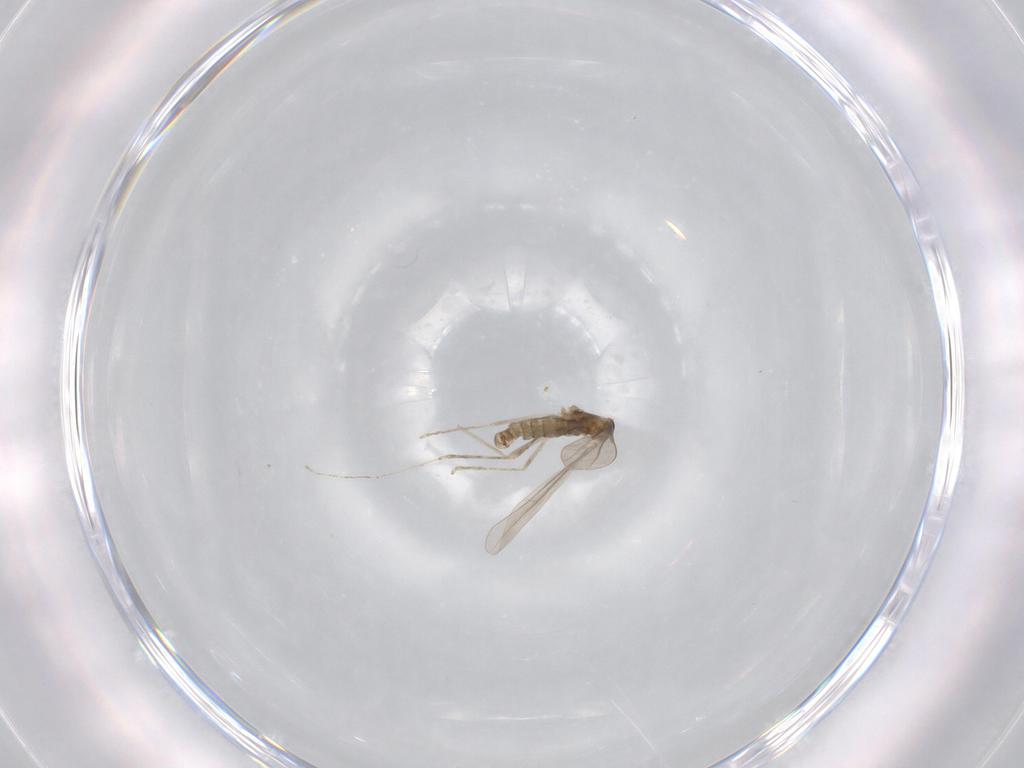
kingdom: Animalia
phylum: Arthropoda
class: Insecta
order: Diptera
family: Cecidomyiidae
